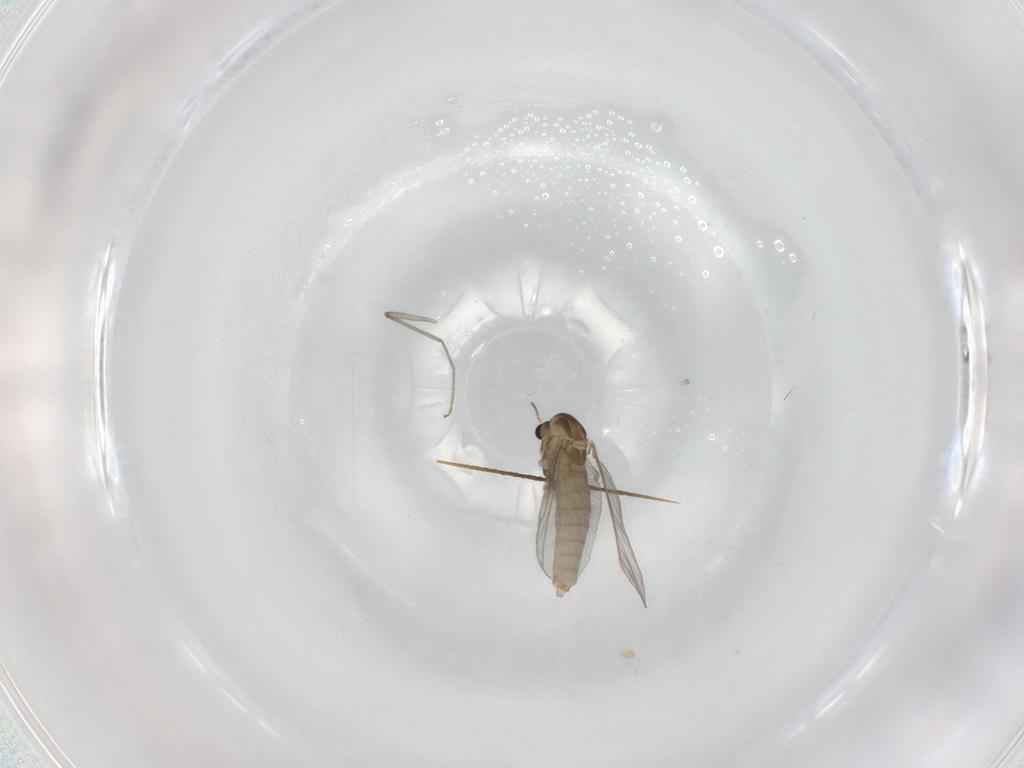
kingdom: Animalia
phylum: Arthropoda
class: Insecta
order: Diptera
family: Chironomidae
